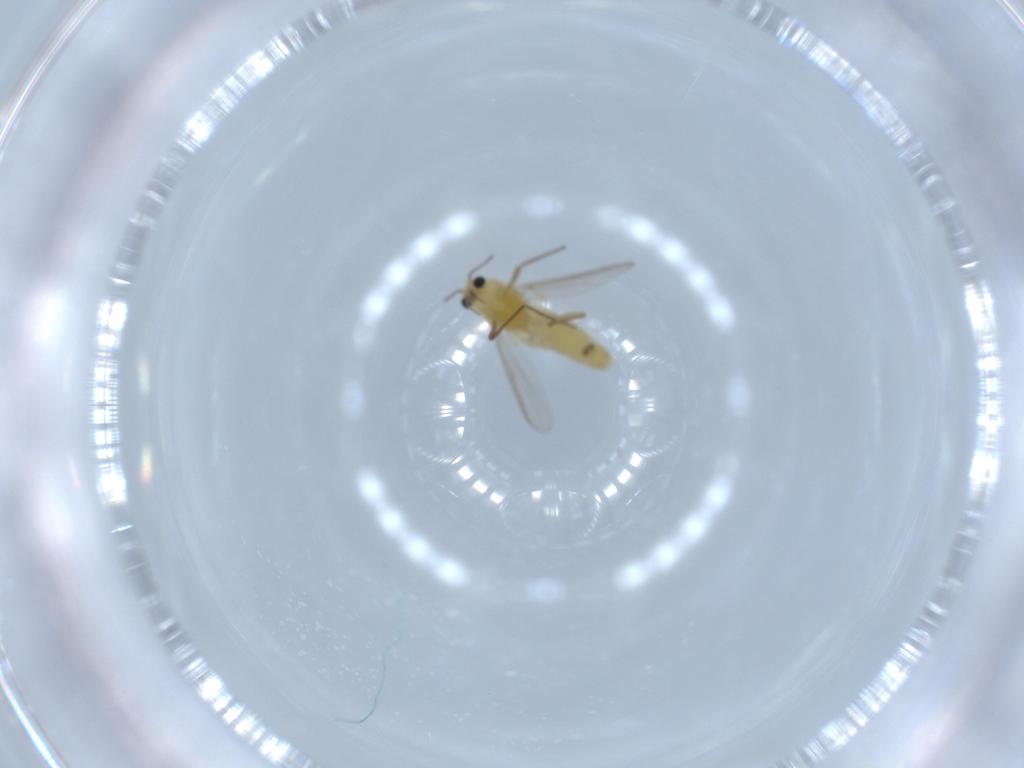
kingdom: Animalia
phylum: Arthropoda
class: Insecta
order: Diptera
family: Chironomidae
